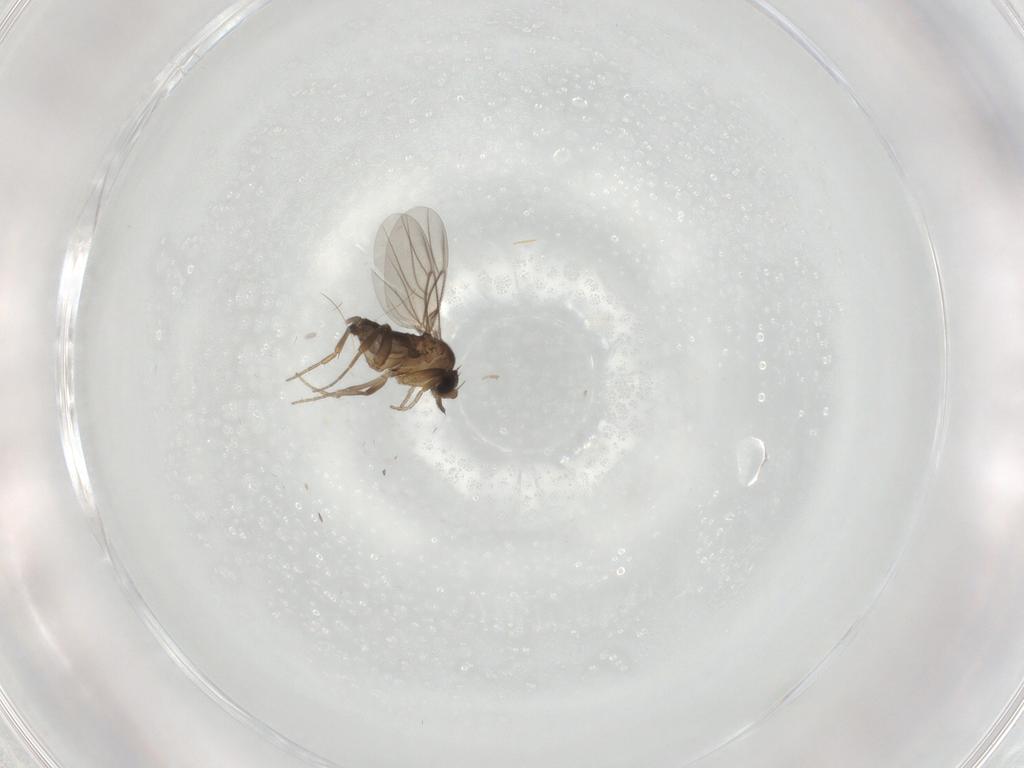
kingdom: Animalia
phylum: Arthropoda
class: Insecta
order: Diptera
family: Phoridae
